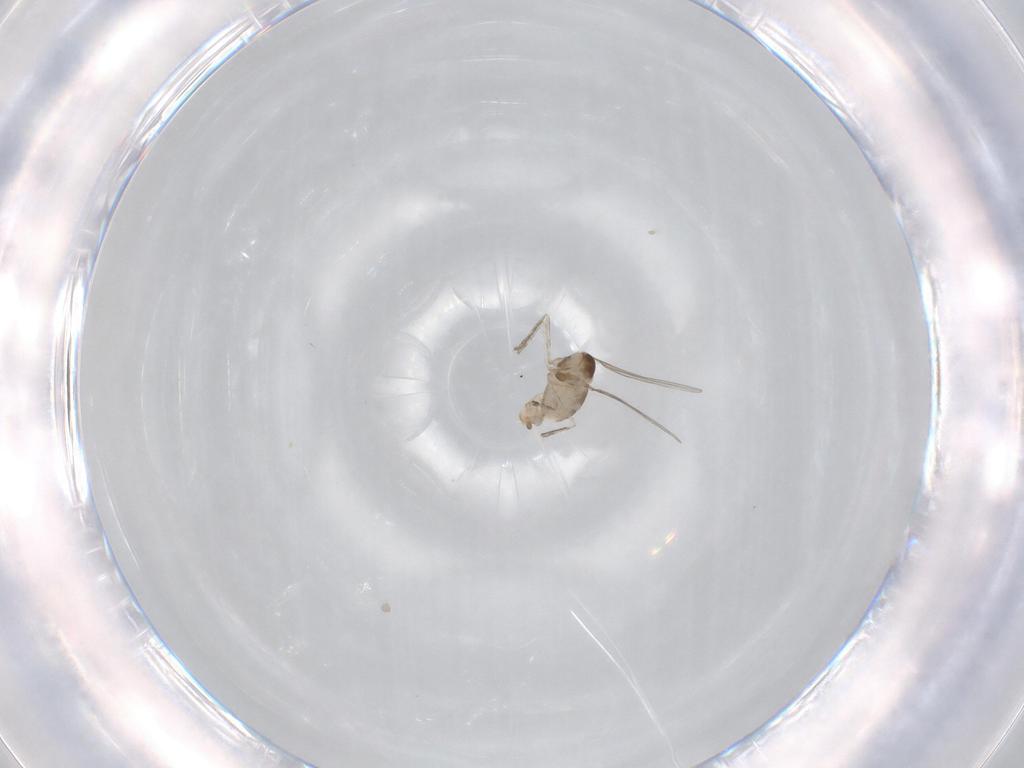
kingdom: Animalia
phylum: Arthropoda
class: Insecta
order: Diptera
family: Cecidomyiidae
